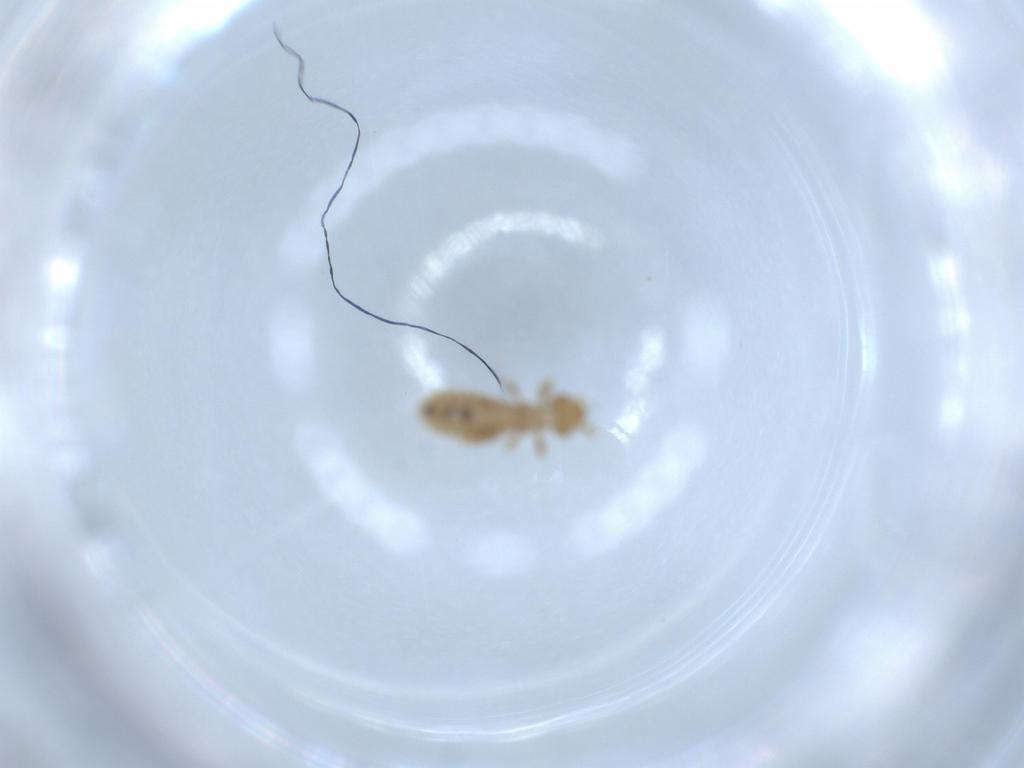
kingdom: Animalia
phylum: Arthropoda
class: Insecta
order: Psocodea
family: Liposcelididae
